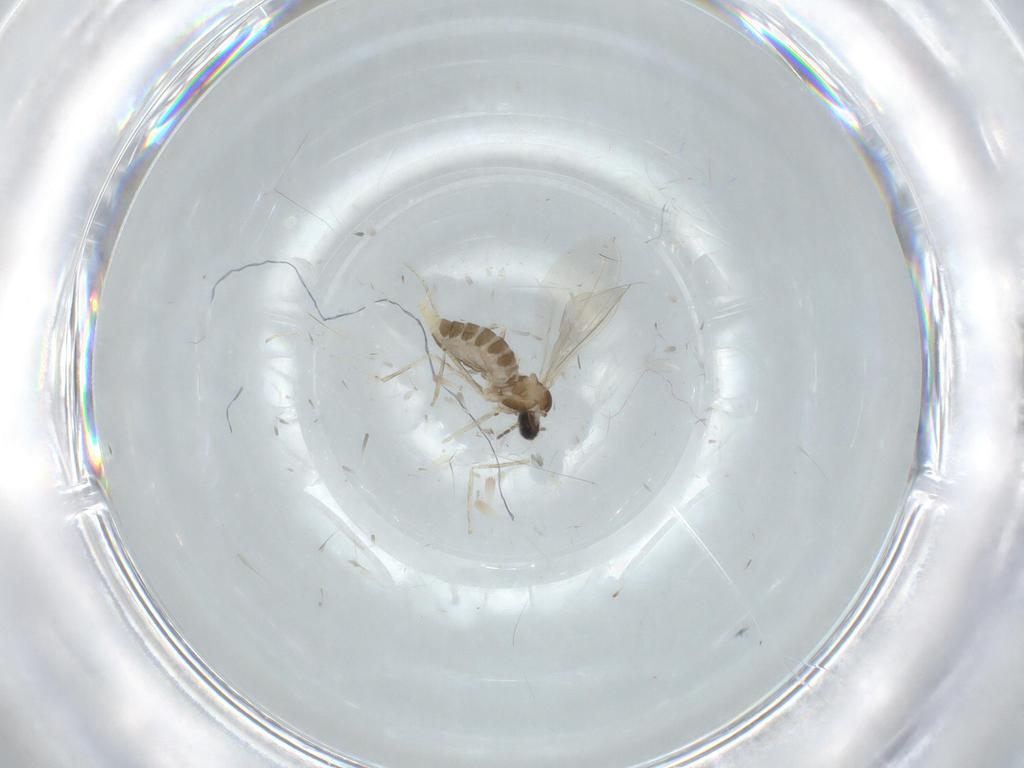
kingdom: Animalia
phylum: Arthropoda
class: Insecta
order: Diptera
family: Cecidomyiidae
